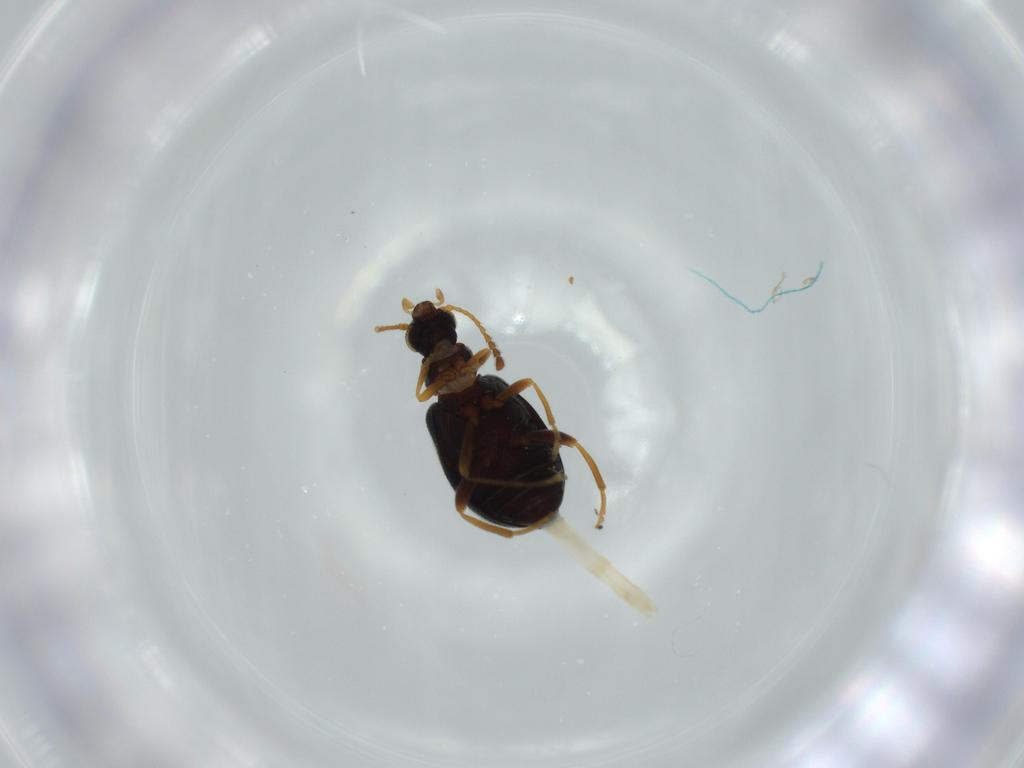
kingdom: Animalia
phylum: Arthropoda
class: Insecta
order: Coleoptera
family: Aderidae
